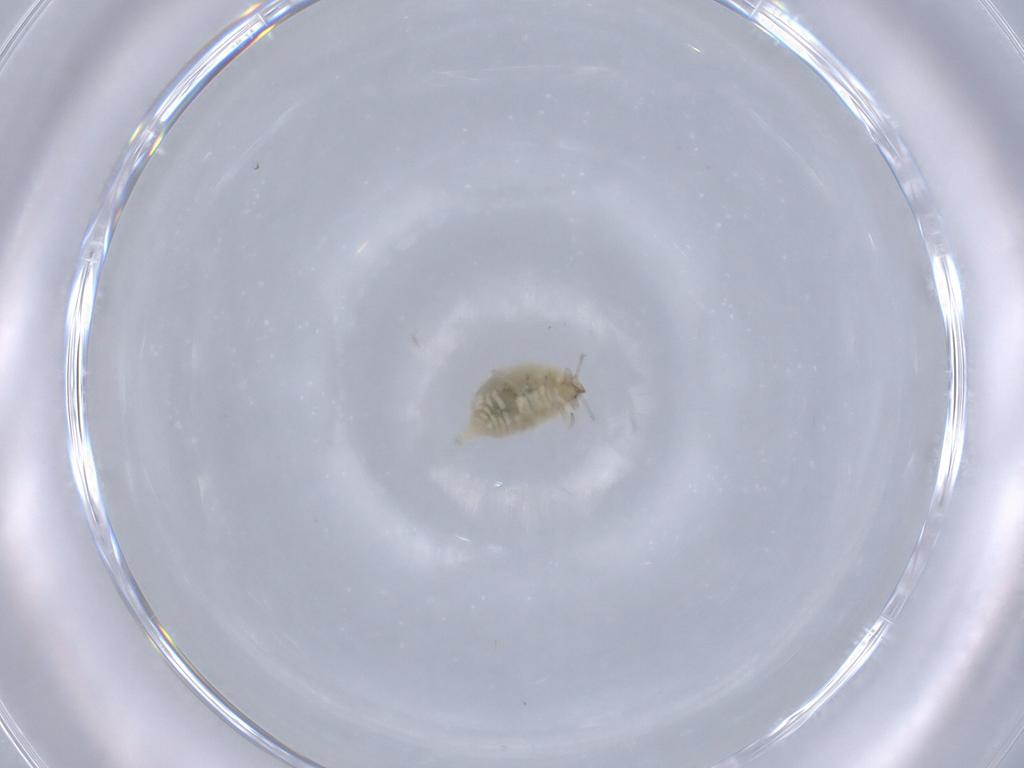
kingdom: Animalia
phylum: Arthropoda
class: Insecta
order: Neuroptera
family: Coniopterygidae
